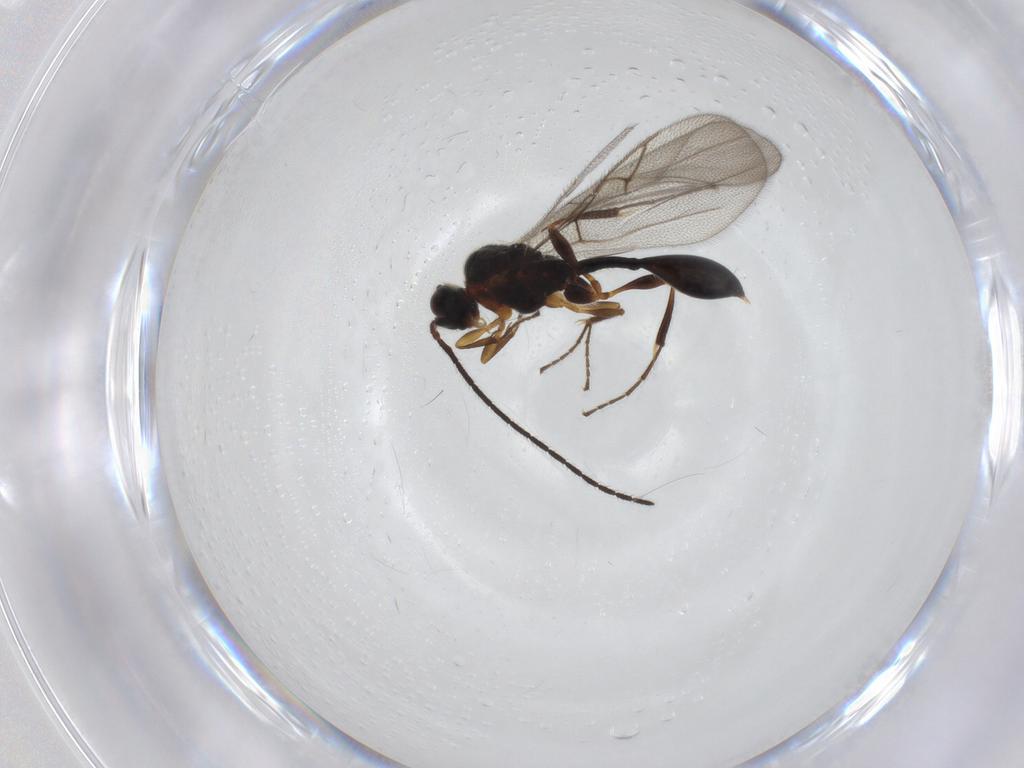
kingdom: Animalia
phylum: Arthropoda
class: Insecta
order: Hymenoptera
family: Diapriidae
